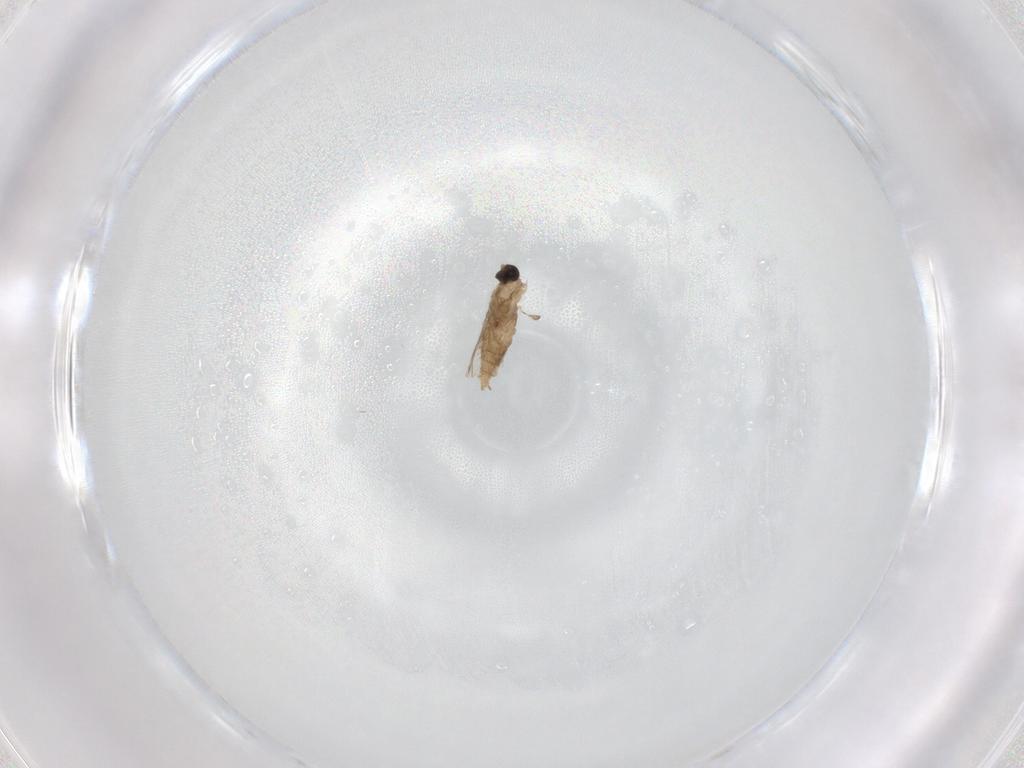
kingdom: Animalia
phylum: Arthropoda
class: Insecta
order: Diptera
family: Cecidomyiidae
